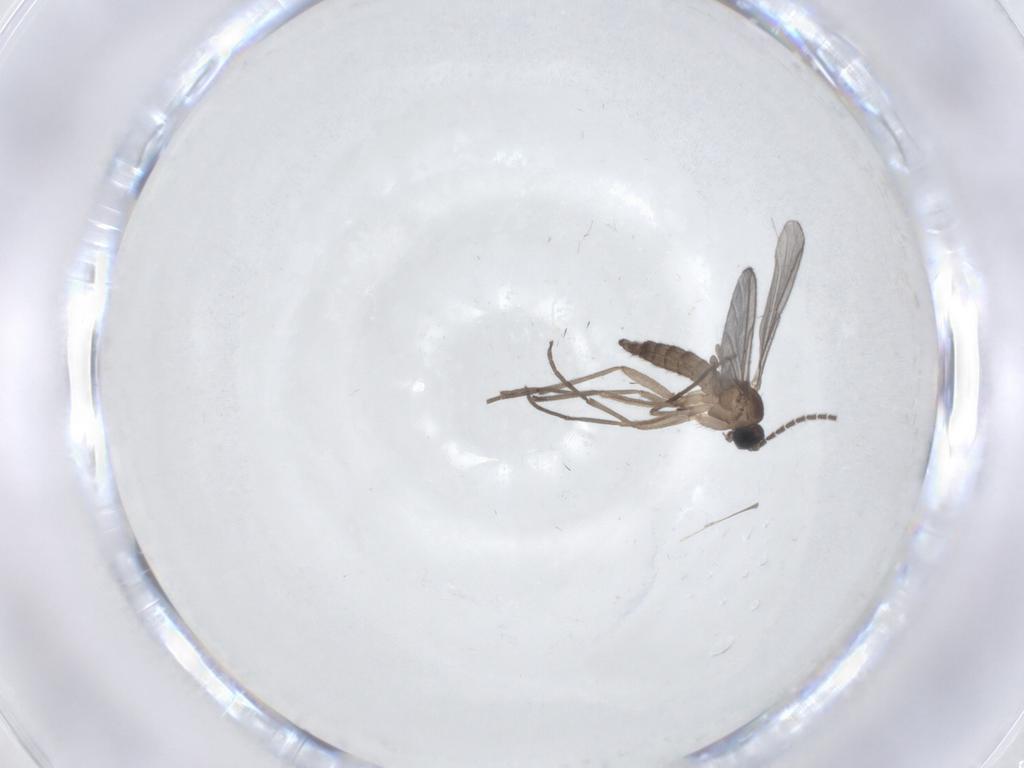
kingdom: Animalia
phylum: Arthropoda
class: Insecta
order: Diptera
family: Sciaridae
